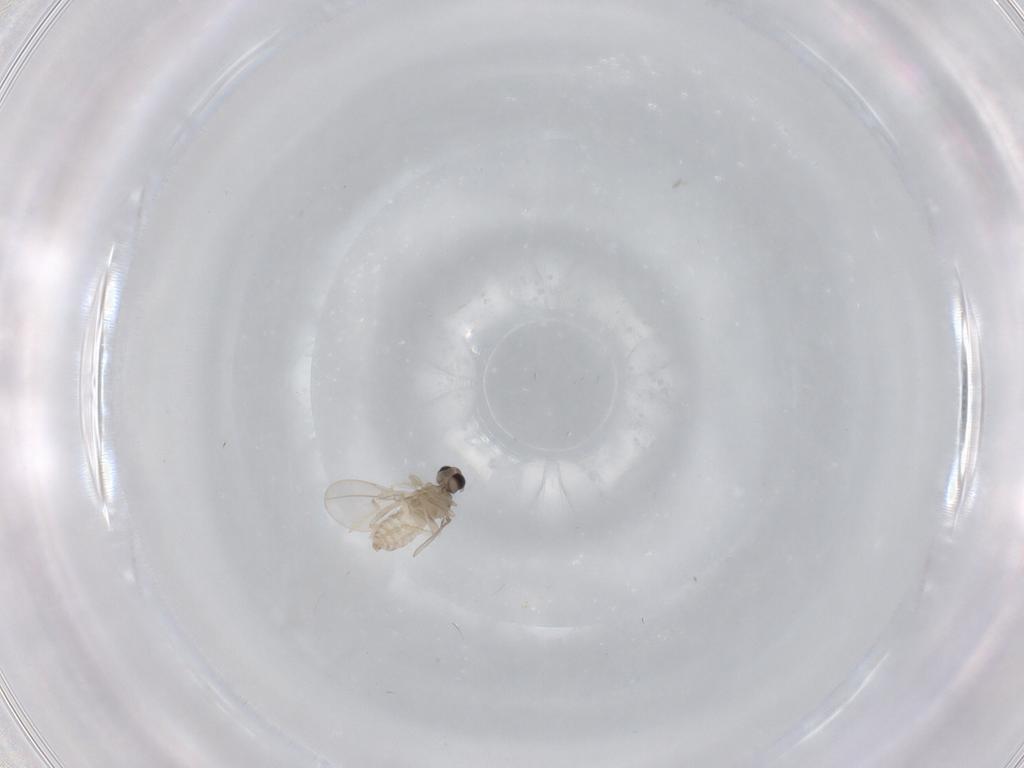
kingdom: Animalia
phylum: Arthropoda
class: Insecta
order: Diptera
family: Cecidomyiidae
